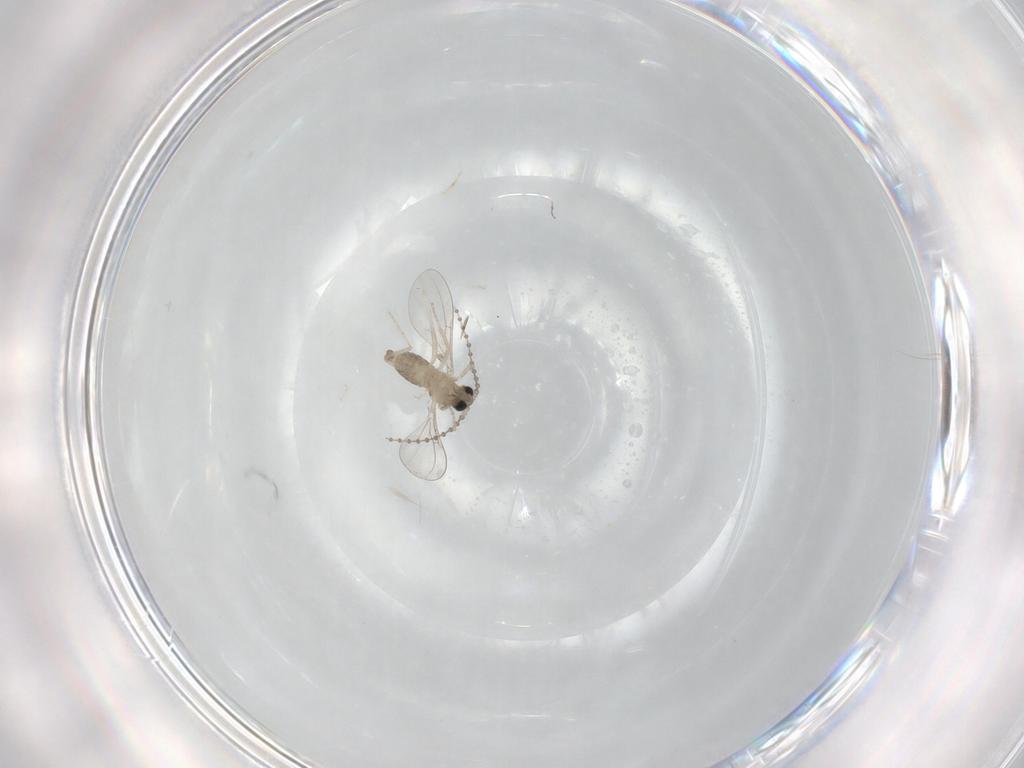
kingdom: Animalia
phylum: Arthropoda
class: Insecta
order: Diptera
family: Cecidomyiidae
